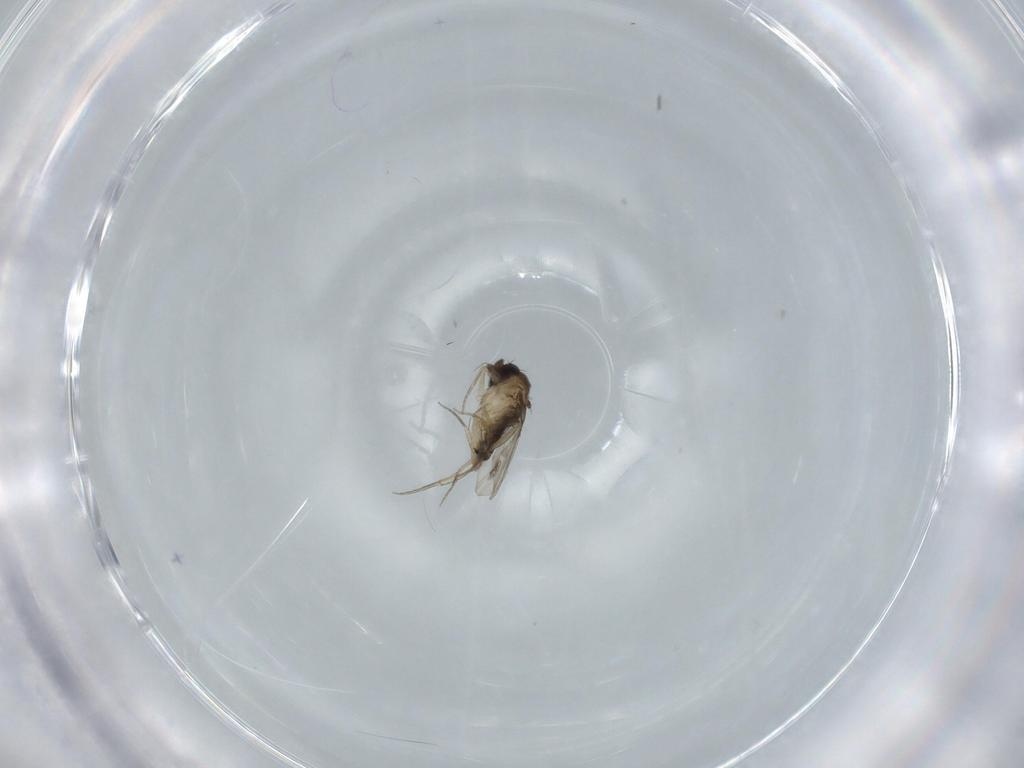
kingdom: Animalia
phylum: Arthropoda
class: Insecta
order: Diptera
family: Phoridae
